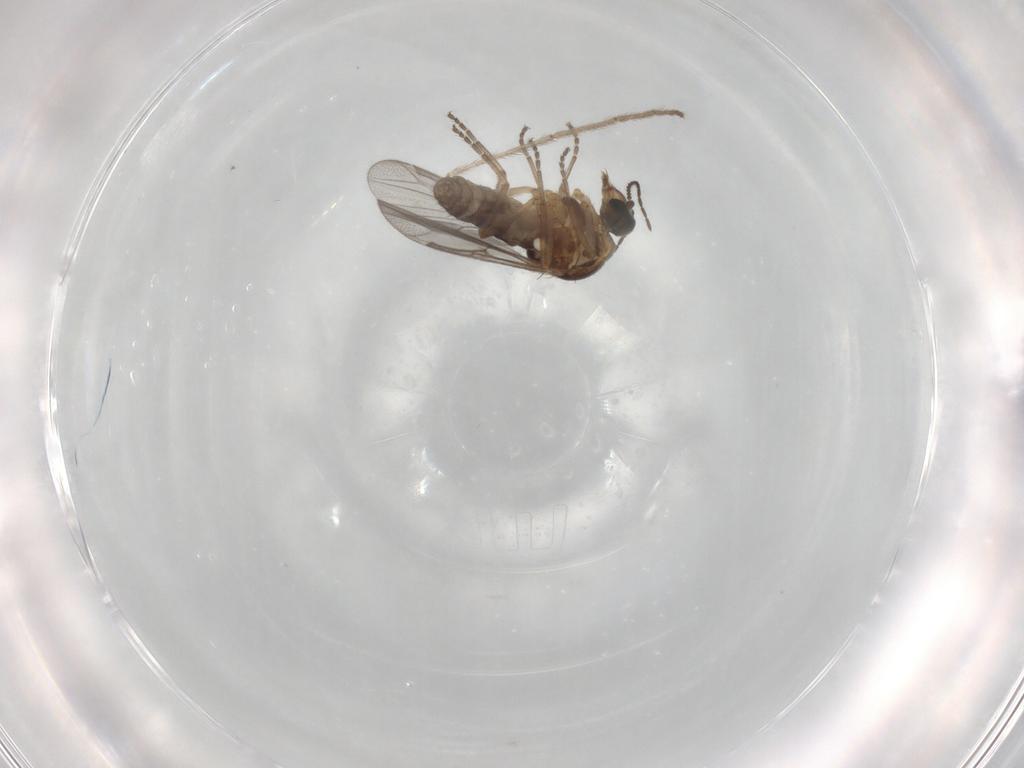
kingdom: Animalia
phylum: Arthropoda
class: Insecta
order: Diptera
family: Ceratopogonidae
